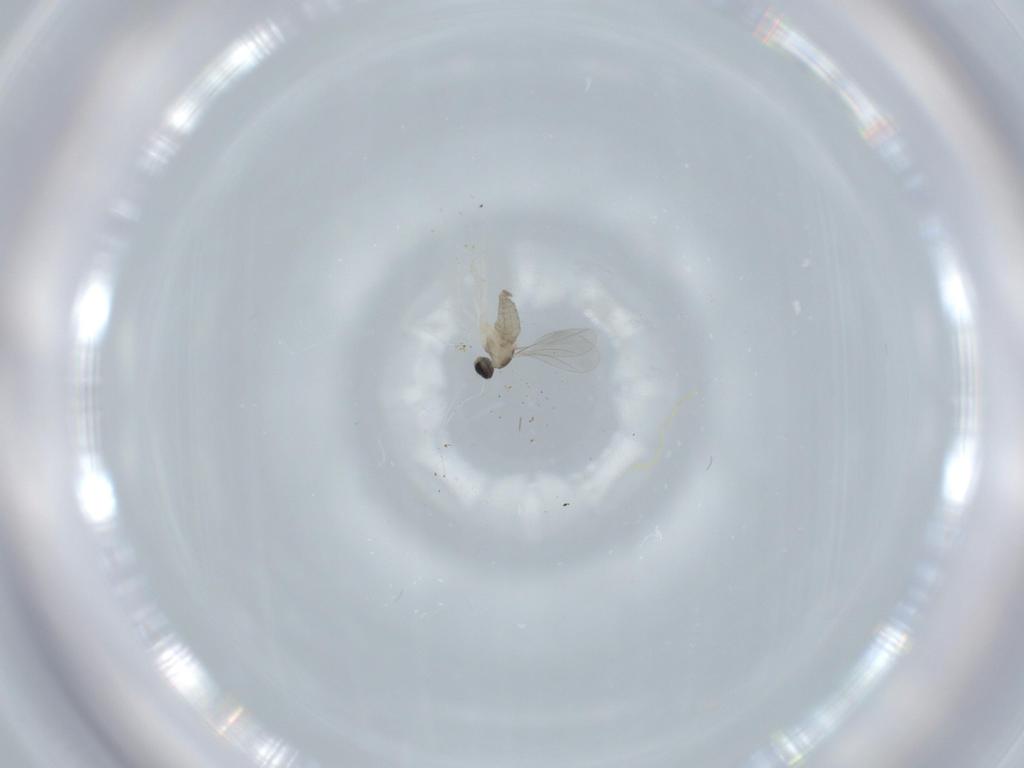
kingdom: Animalia
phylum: Arthropoda
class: Insecta
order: Diptera
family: Cecidomyiidae
